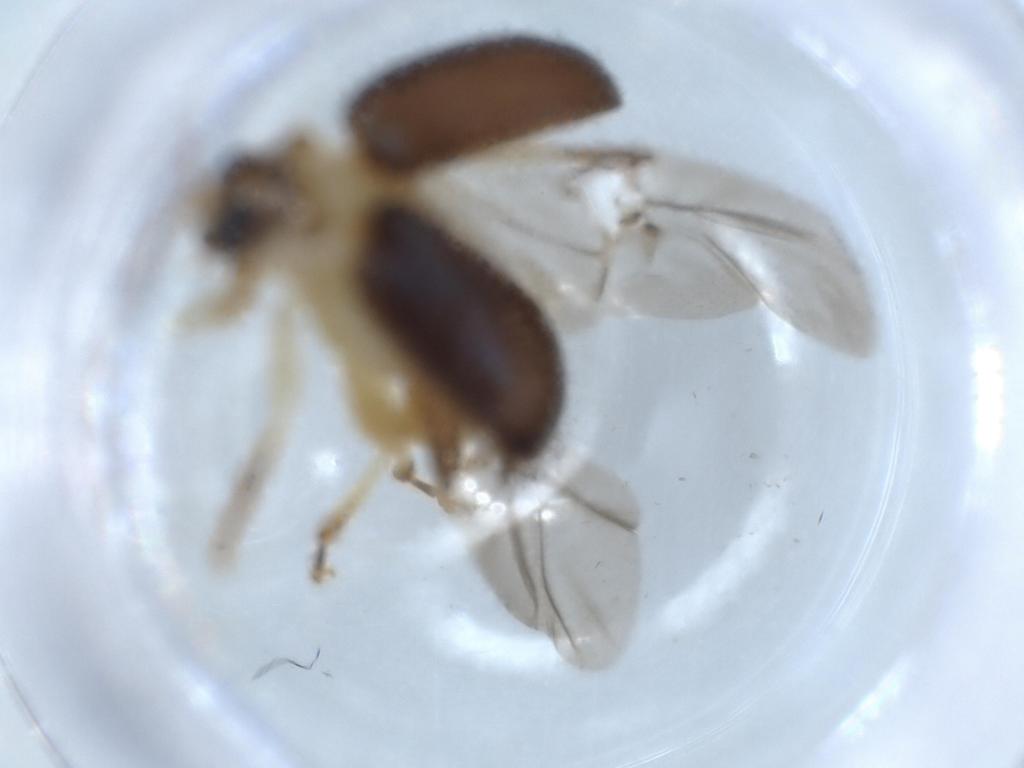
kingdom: Animalia
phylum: Arthropoda
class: Insecta
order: Coleoptera
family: Chrysomelidae
